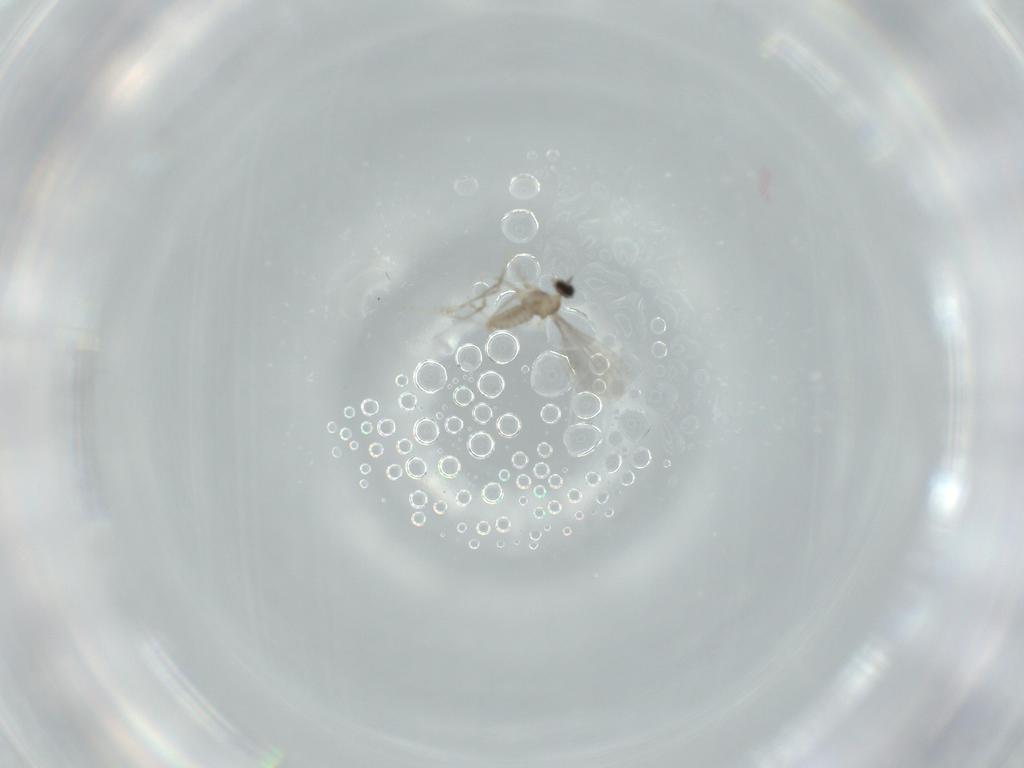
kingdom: Animalia
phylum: Arthropoda
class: Insecta
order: Diptera
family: Cecidomyiidae
